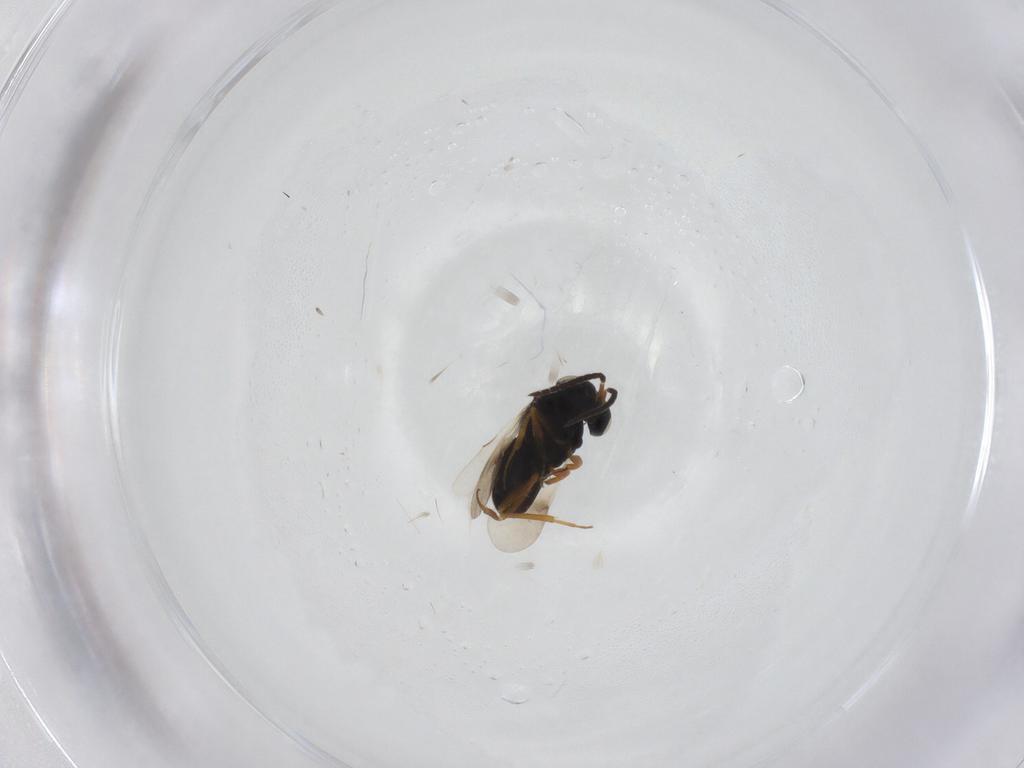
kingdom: Animalia
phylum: Arthropoda
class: Insecta
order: Hymenoptera
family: Scelionidae
